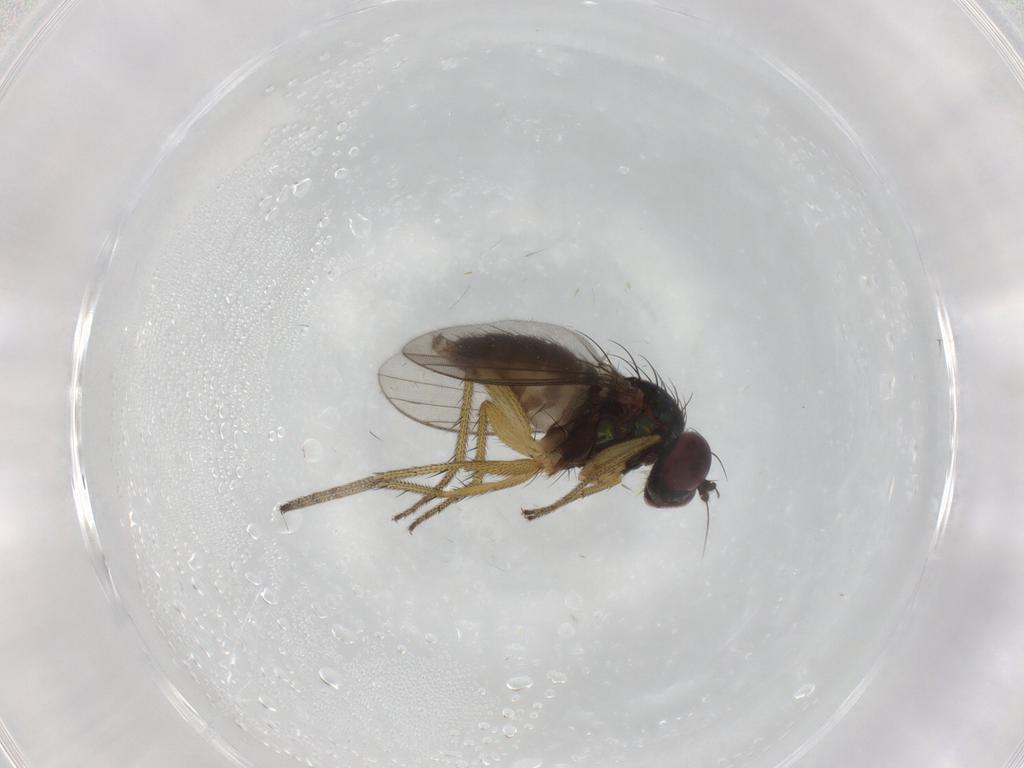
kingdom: Animalia
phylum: Arthropoda
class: Insecta
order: Diptera
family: Dolichopodidae
